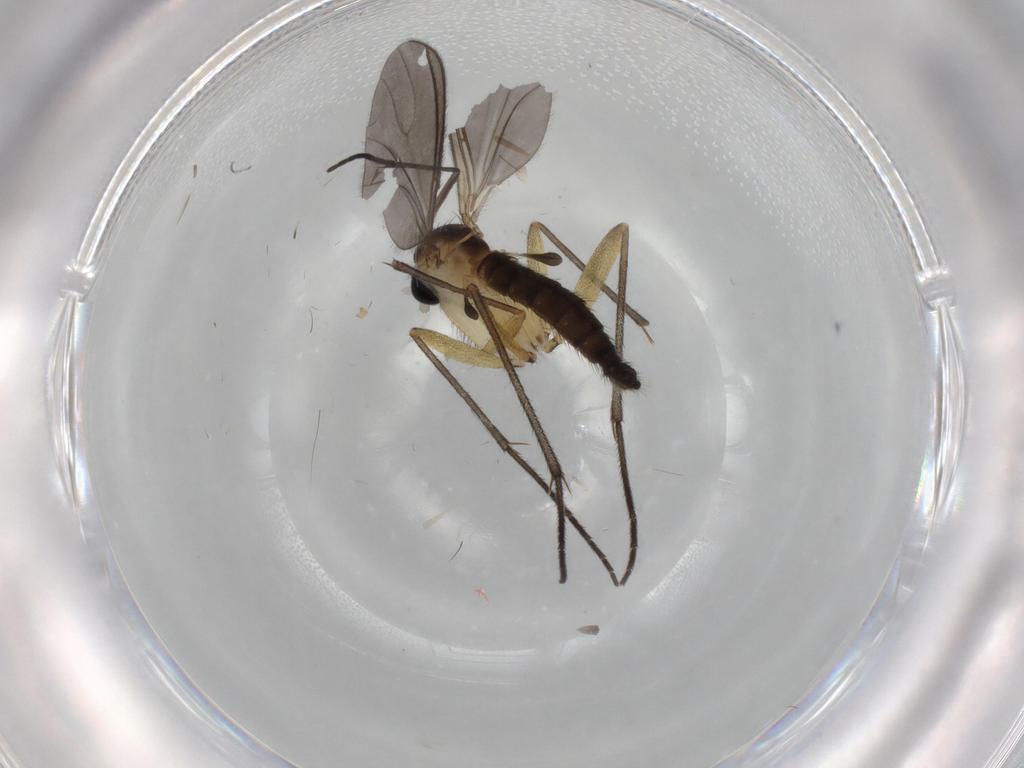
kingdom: Animalia
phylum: Arthropoda
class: Insecta
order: Diptera
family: Sciaridae
